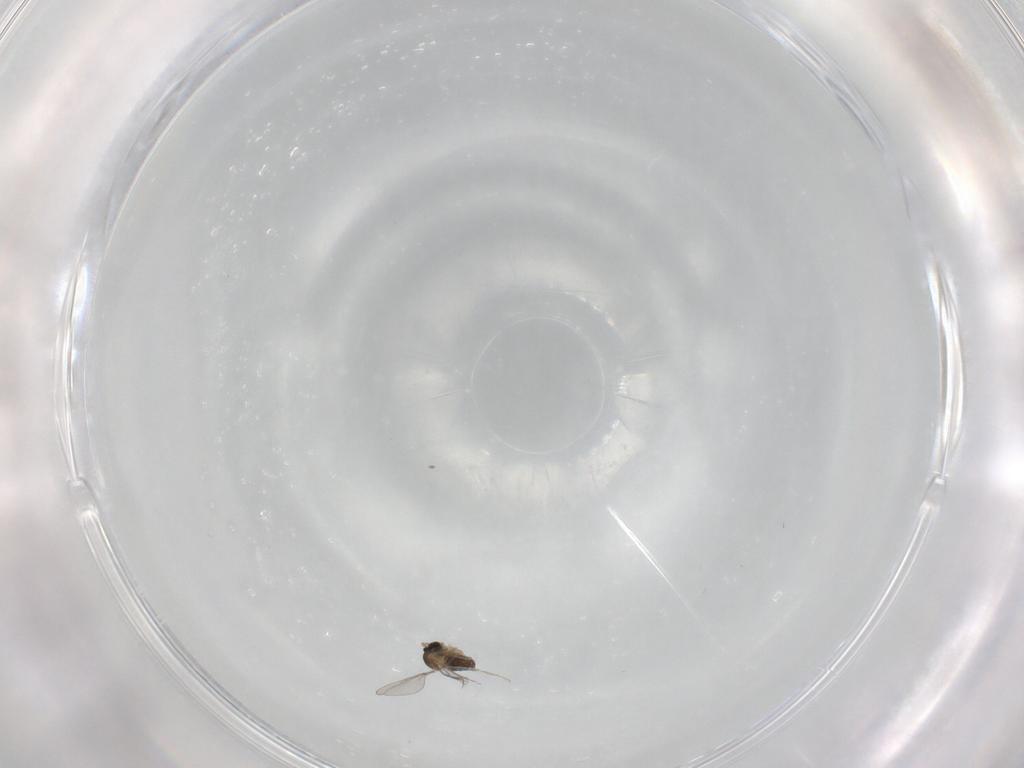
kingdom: Animalia
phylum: Arthropoda
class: Insecta
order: Diptera
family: Cecidomyiidae
